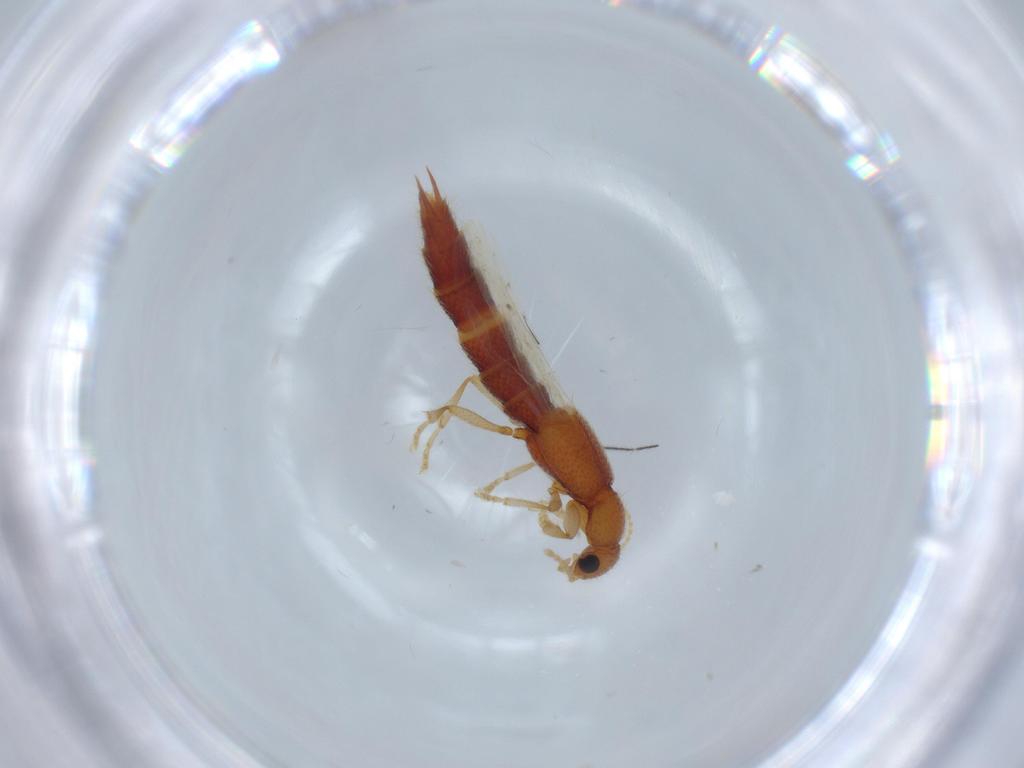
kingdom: Animalia
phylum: Arthropoda
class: Insecta
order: Coleoptera
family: Staphylinidae
